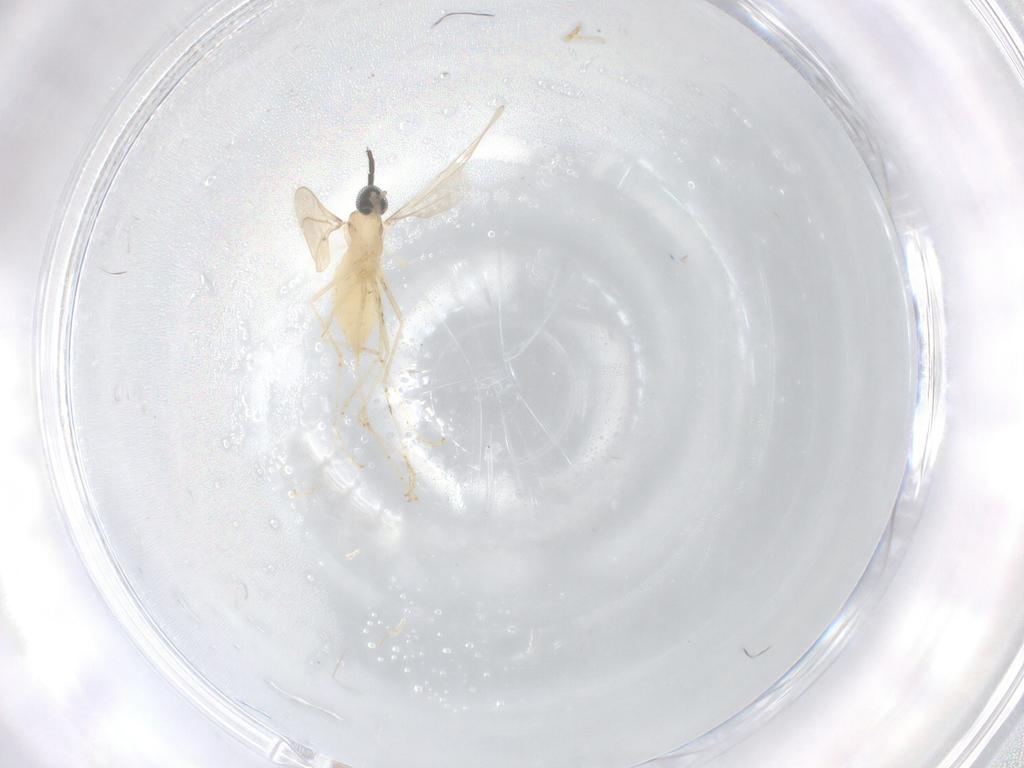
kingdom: Animalia
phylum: Arthropoda
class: Insecta
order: Diptera
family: Cecidomyiidae
